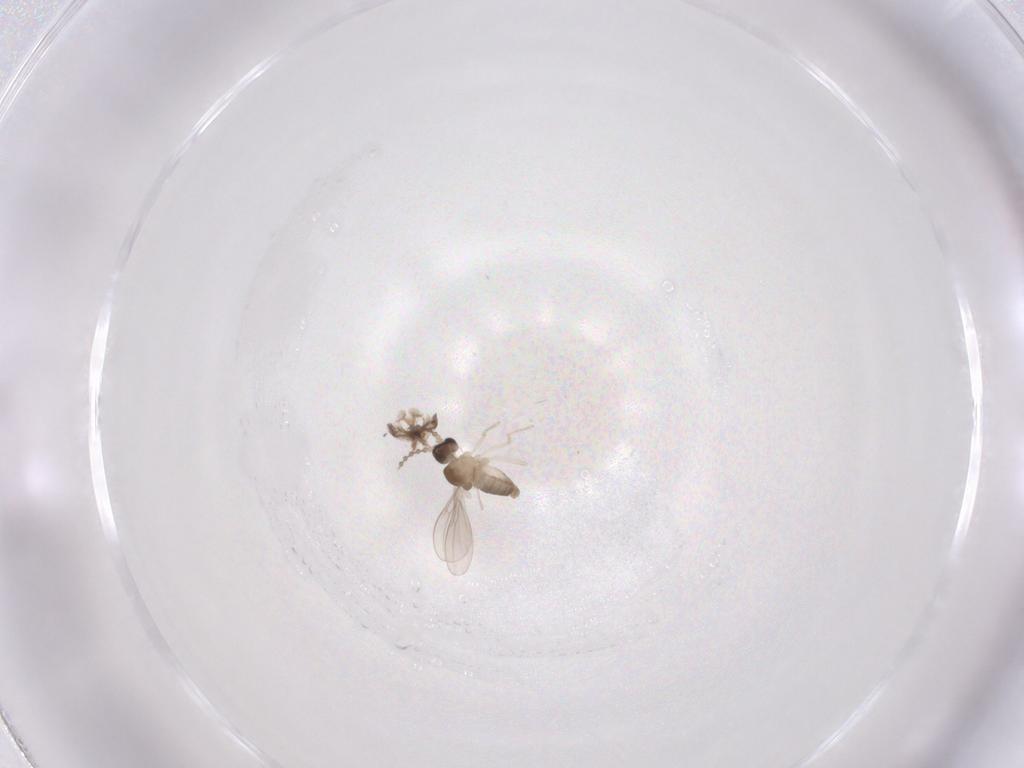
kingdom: Animalia
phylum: Arthropoda
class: Insecta
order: Diptera
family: Cecidomyiidae
